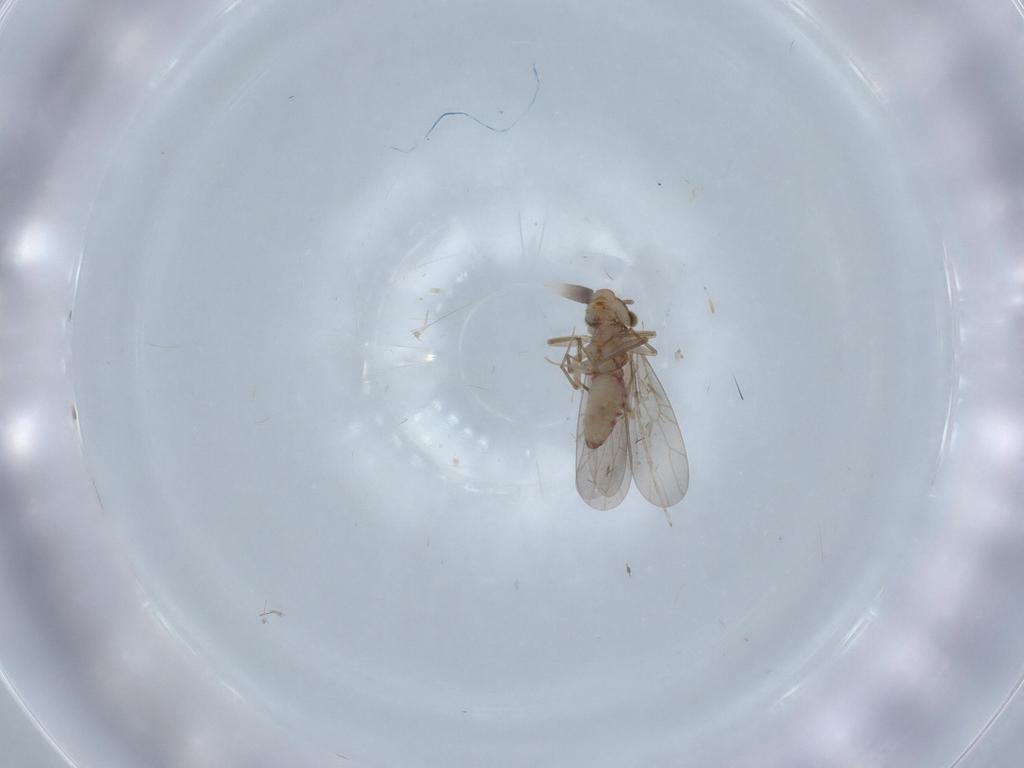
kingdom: Animalia
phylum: Arthropoda
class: Insecta
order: Psocodea
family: Lepidopsocidae
